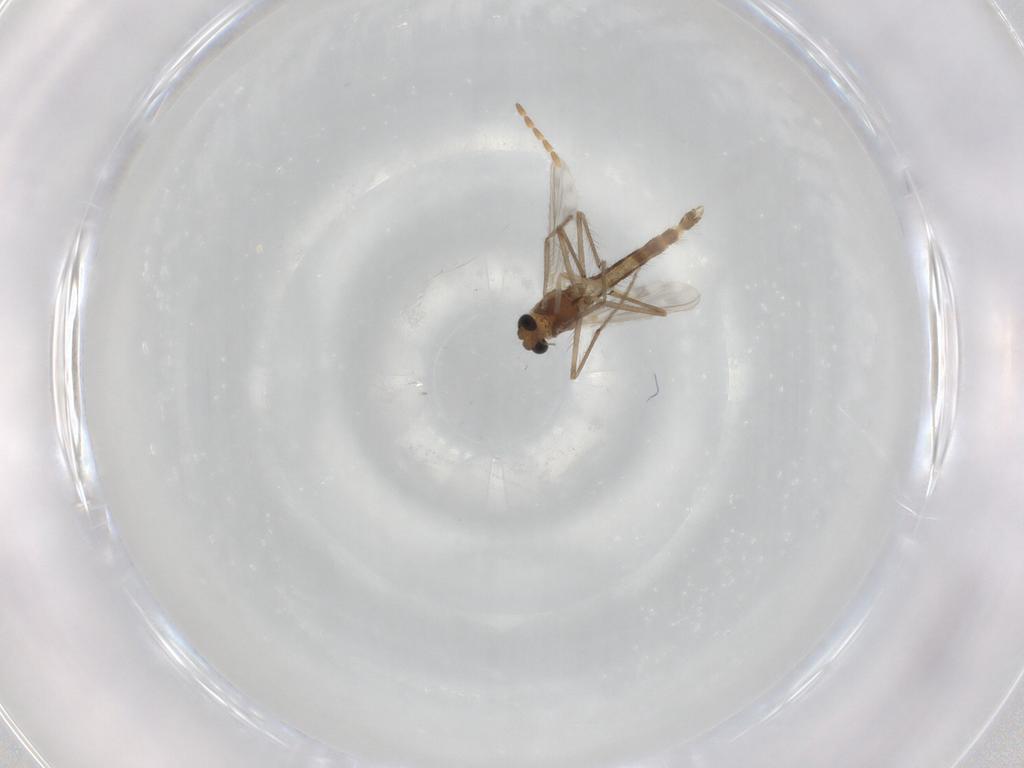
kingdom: Animalia
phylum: Arthropoda
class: Insecta
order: Diptera
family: Chironomidae
